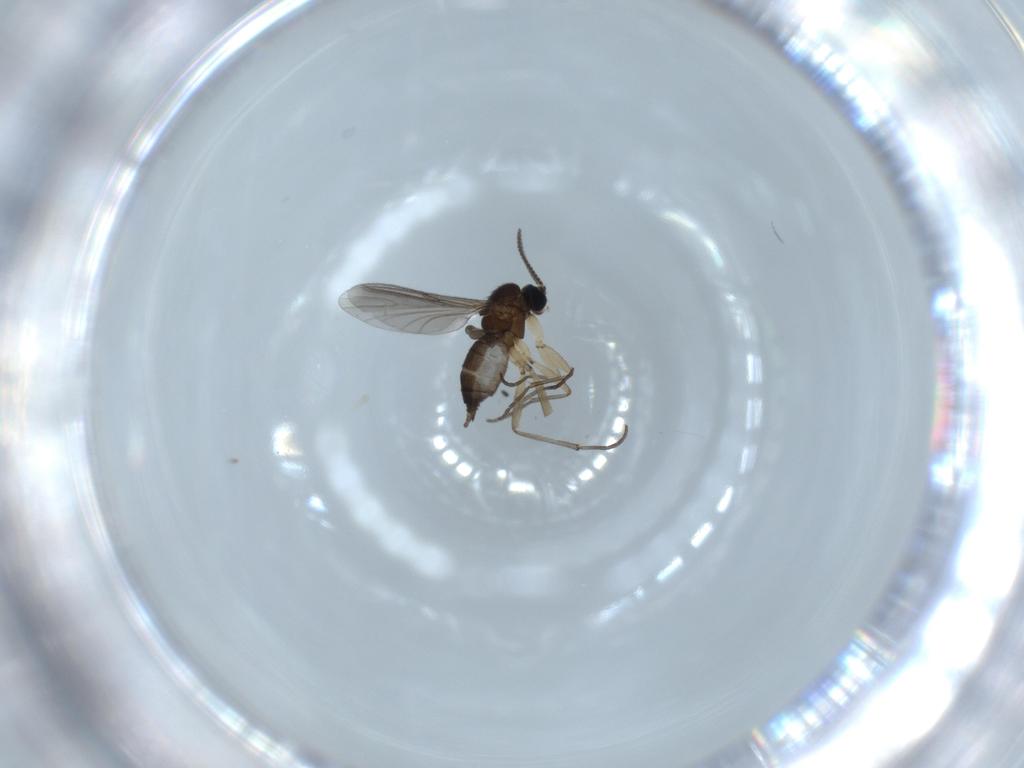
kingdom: Animalia
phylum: Arthropoda
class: Insecta
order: Diptera
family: Sciaridae
